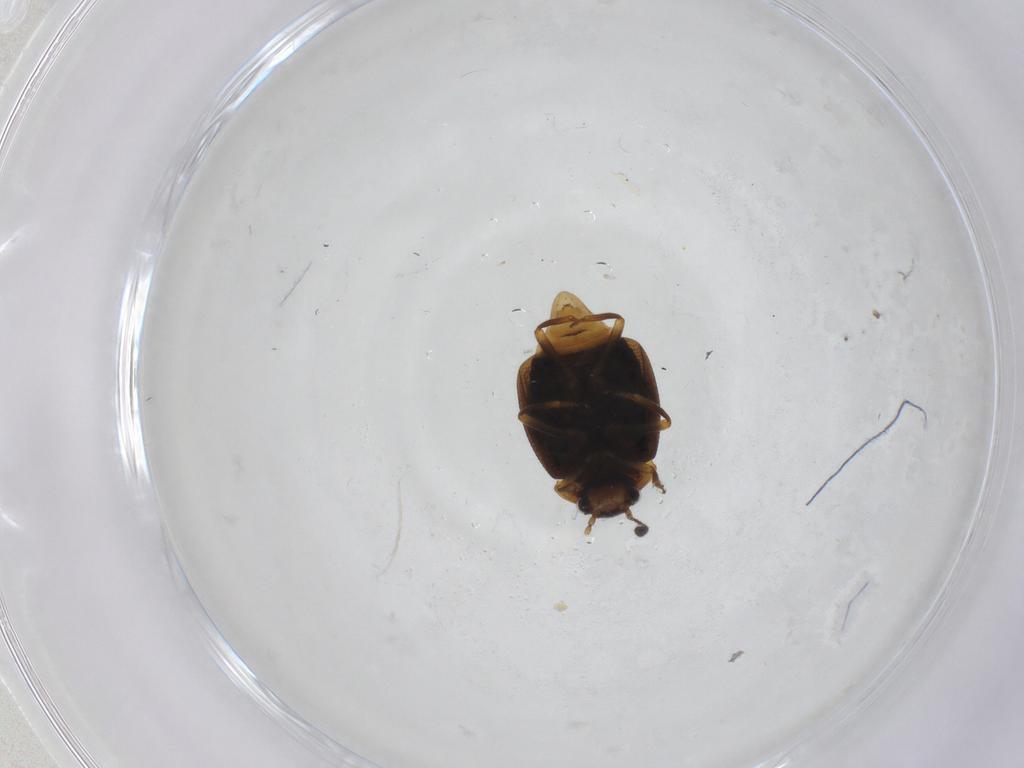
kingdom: Animalia
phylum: Arthropoda
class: Insecta
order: Coleoptera
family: Staphylinidae
